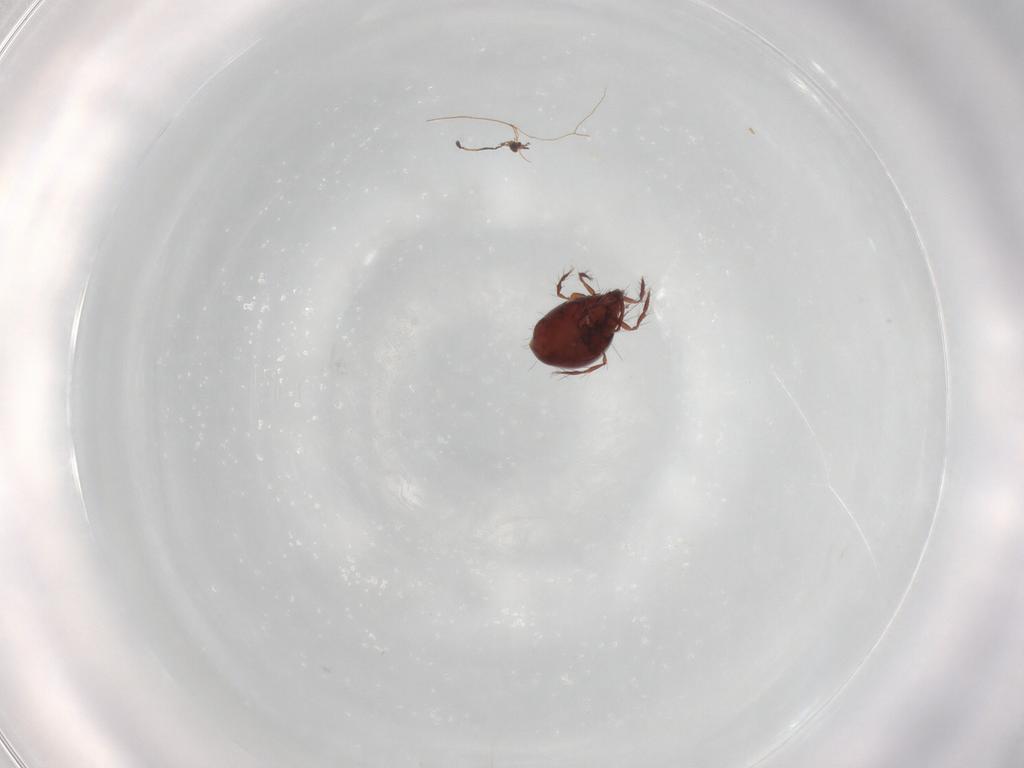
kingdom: Animalia
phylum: Arthropoda
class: Arachnida
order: Sarcoptiformes
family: Ceratoppiidae
